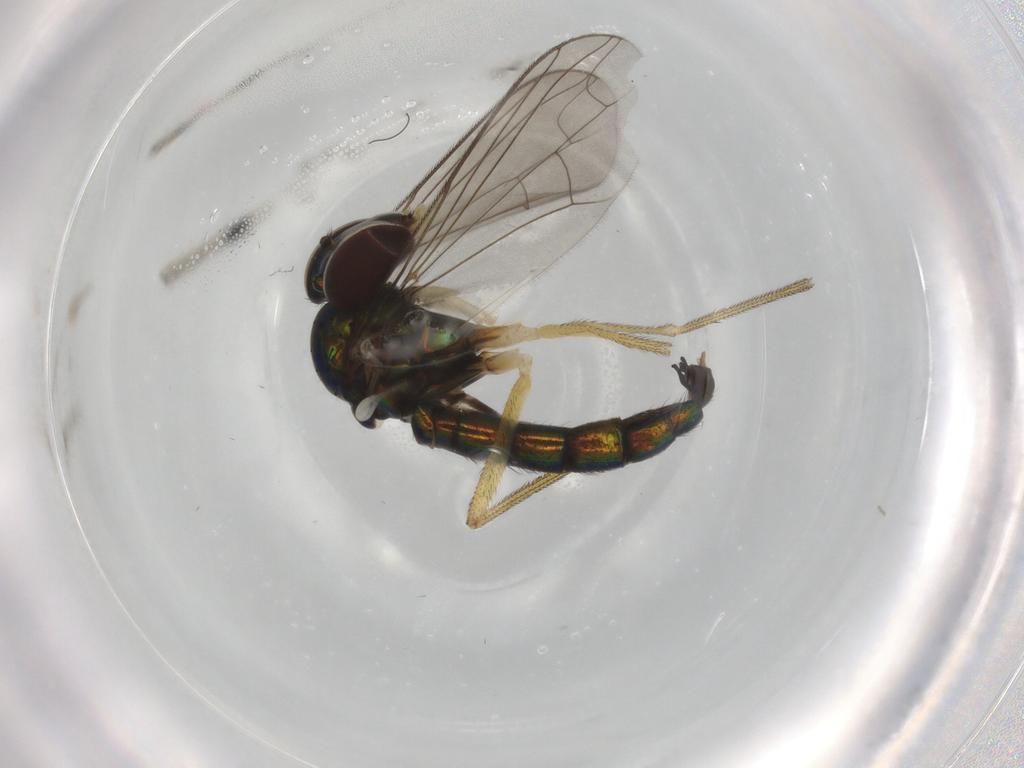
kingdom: Animalia
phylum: Arthropoda
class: Insecta
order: Diptera
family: Dolichopodidae
